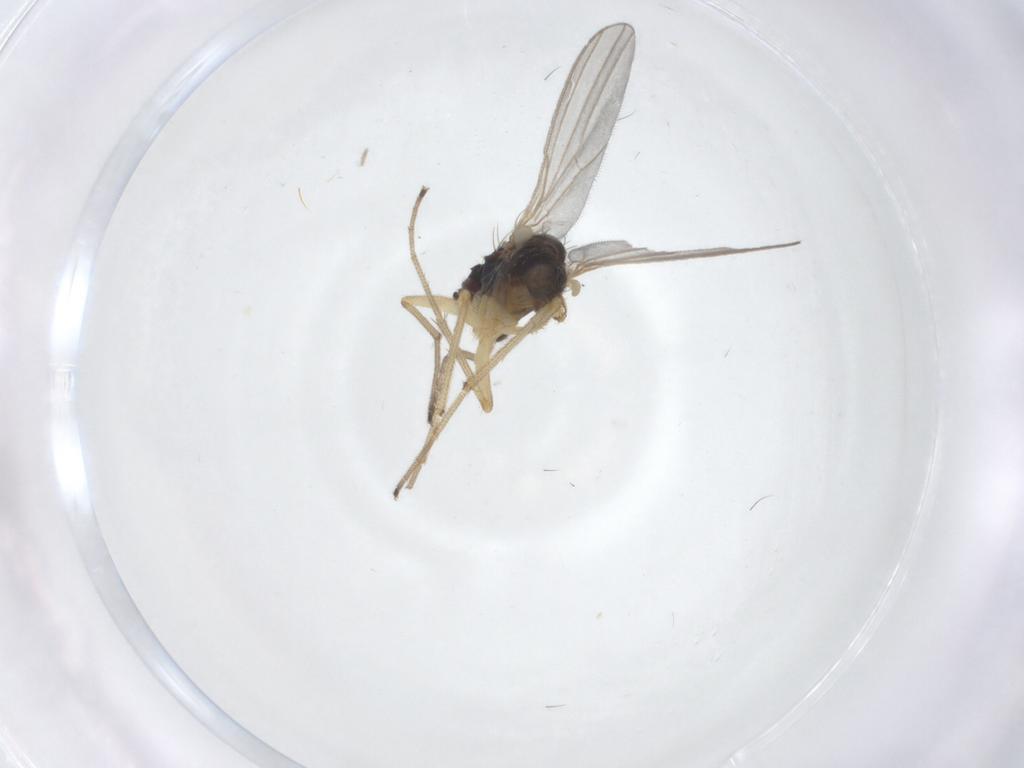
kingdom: Animalia
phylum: Arthropoda
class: Insecta
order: Diptera
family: Dolichopodidae
